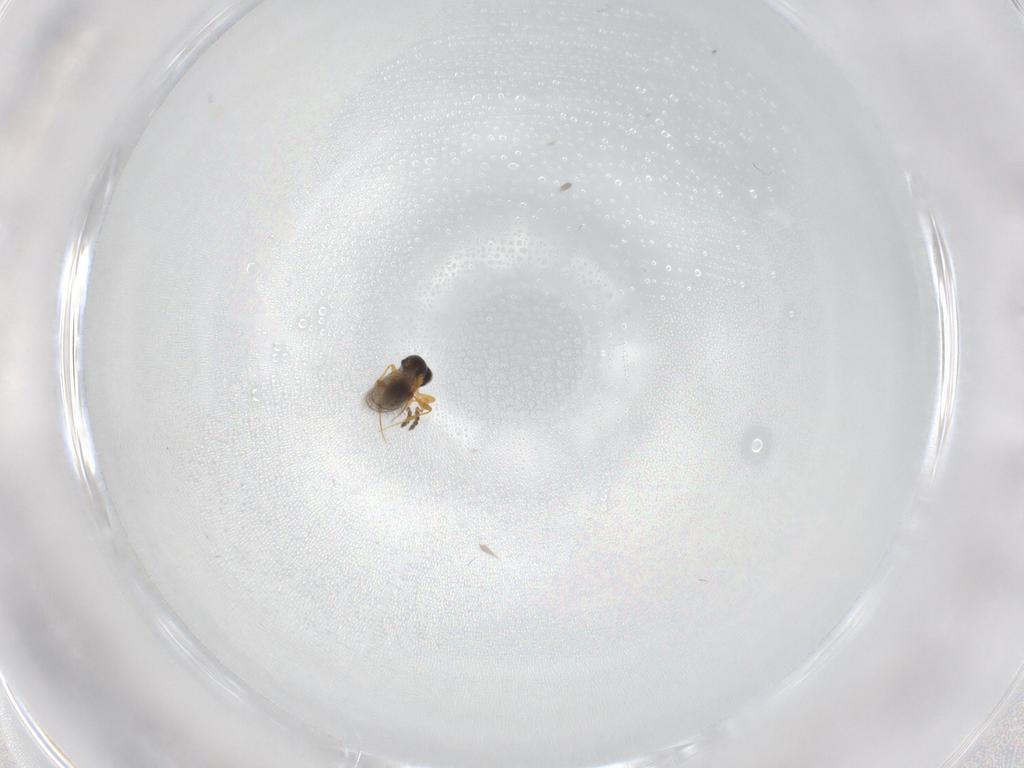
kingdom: Animalia
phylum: Arthropoda
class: Insecta
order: Hymenoptera
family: Platygastridae
